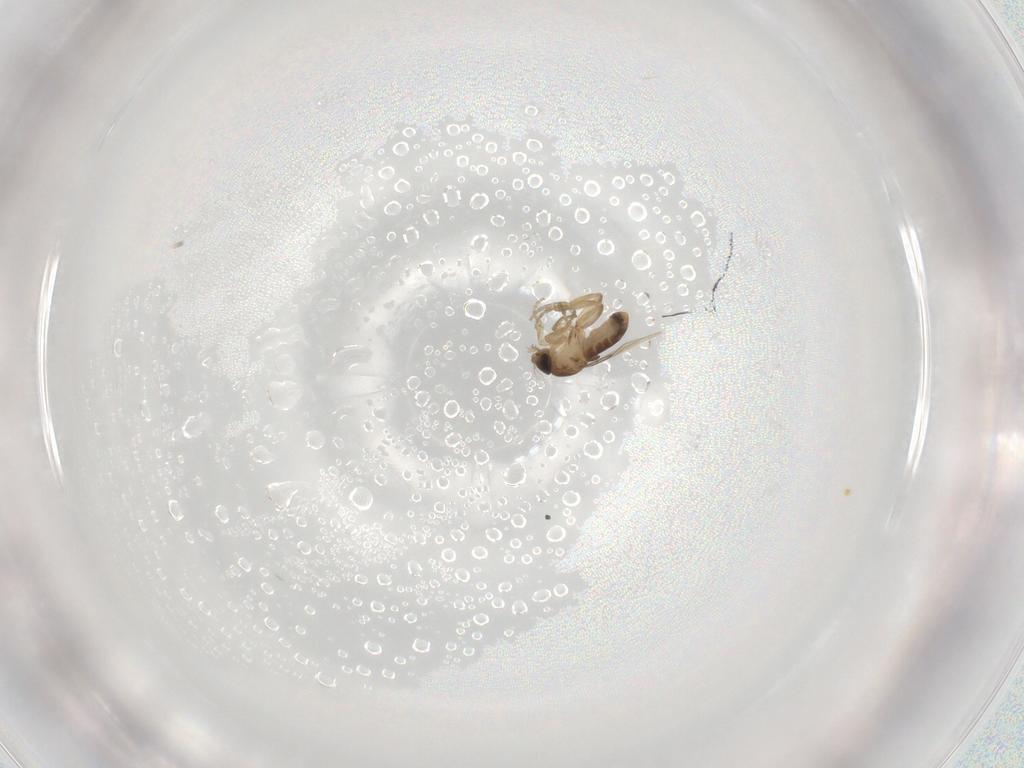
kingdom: Animalia
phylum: Arthropoda
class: Insecta
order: Diptera
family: Phoridae
